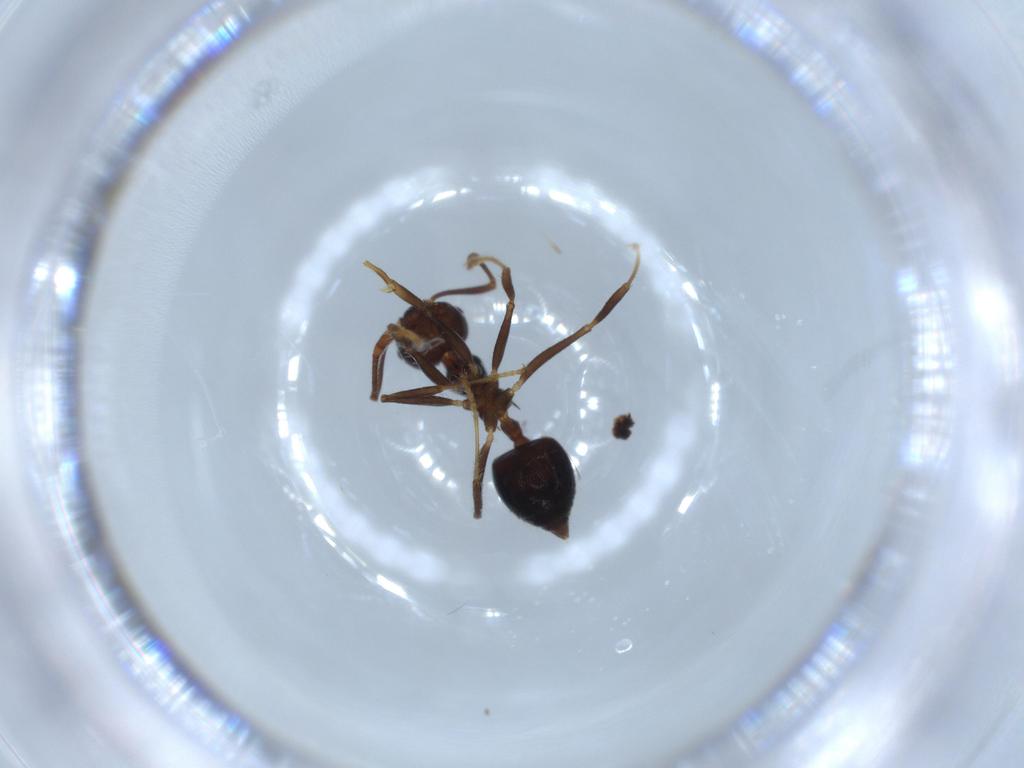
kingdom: Animalia
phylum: Arthropoda
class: Insecta
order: Hymenoptera
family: Formicidae
